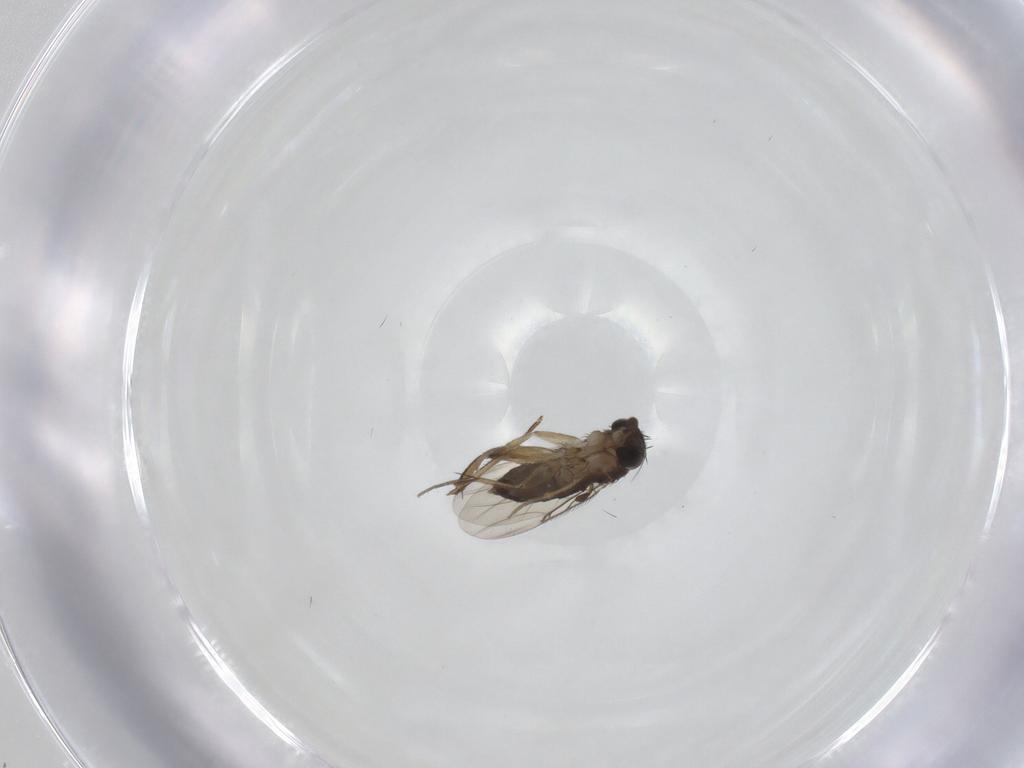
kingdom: Animalia
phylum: Arthropoda
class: Insecta
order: Diptera
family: Phoridae
